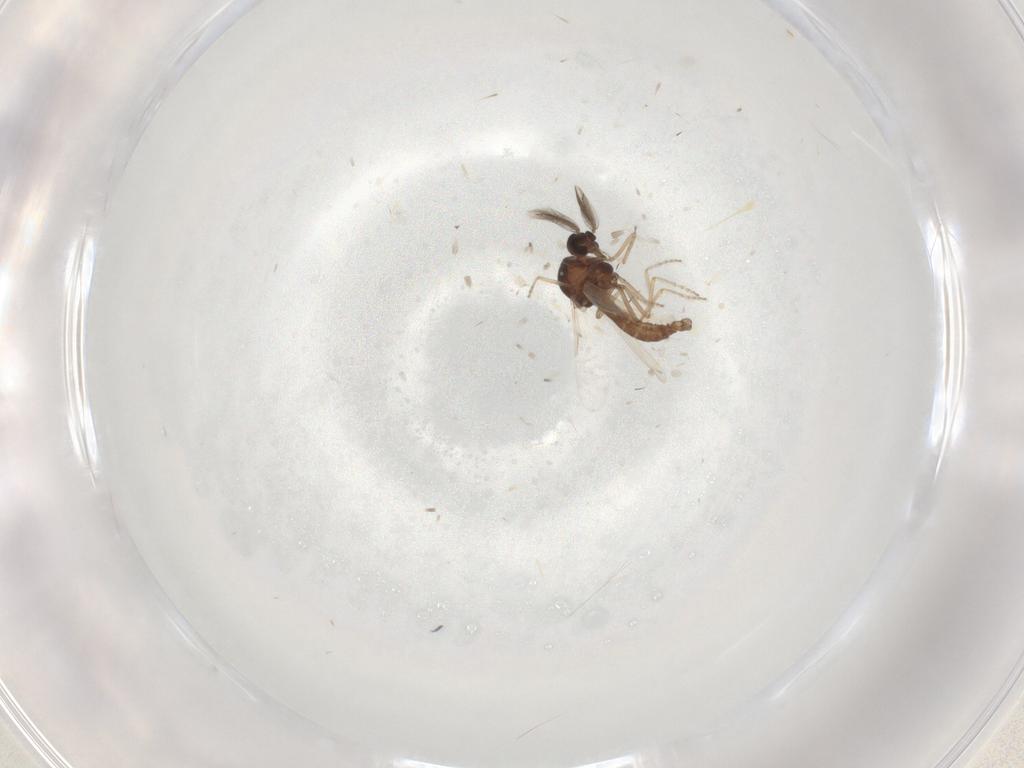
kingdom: Animalia
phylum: Arthropoda
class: Insecta
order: Diptera
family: Ceratopogonidae
